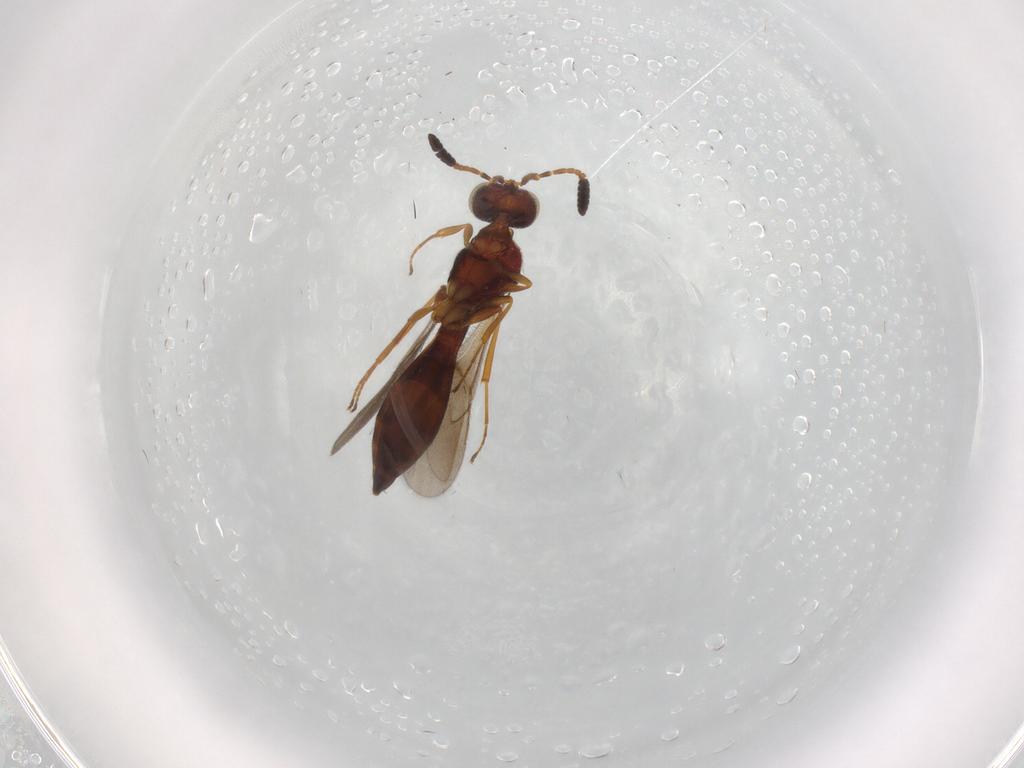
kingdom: Animalia
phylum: Arthropoda
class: Insecta
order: Hymenoptera
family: Scelionidae
